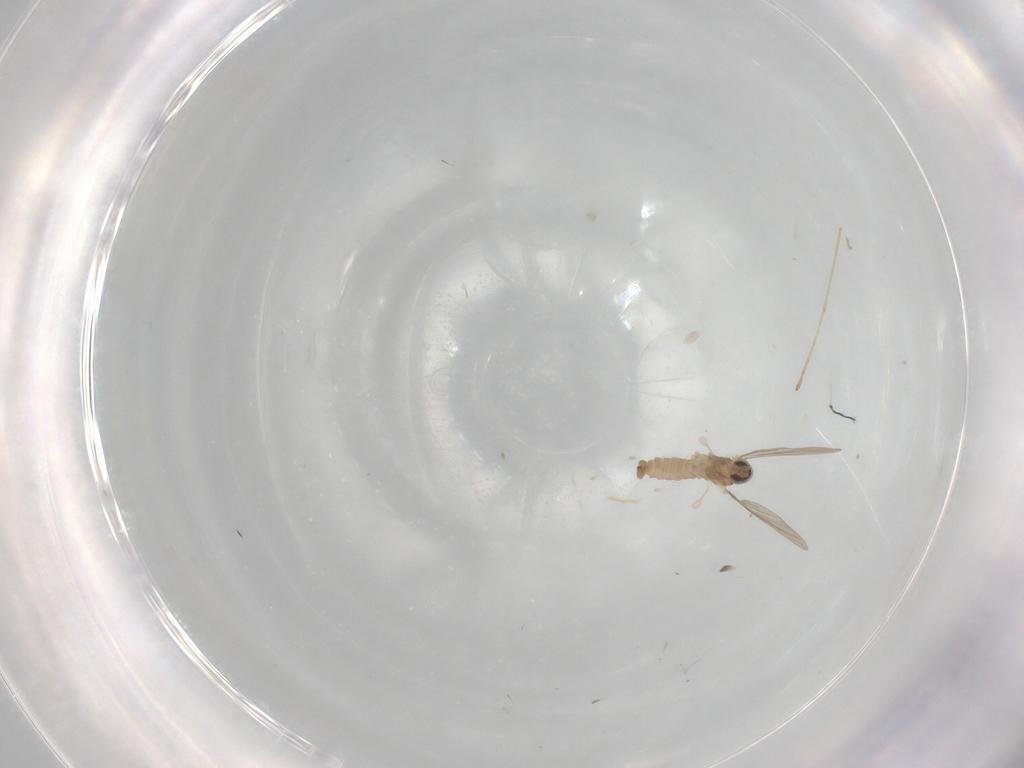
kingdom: Animalia
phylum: Arthropoda
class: Insecta
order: Diptera
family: Cecidomyiidae
